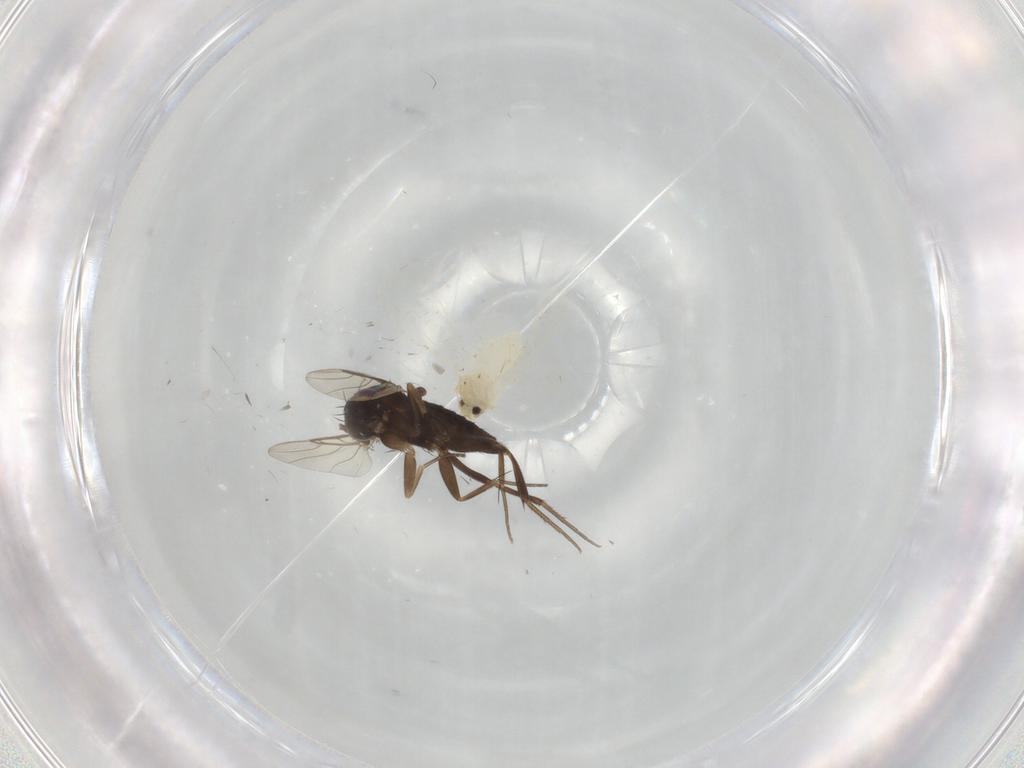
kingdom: Animalia
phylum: Arthropoda
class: Insecta
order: Diptera
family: Phoridae
